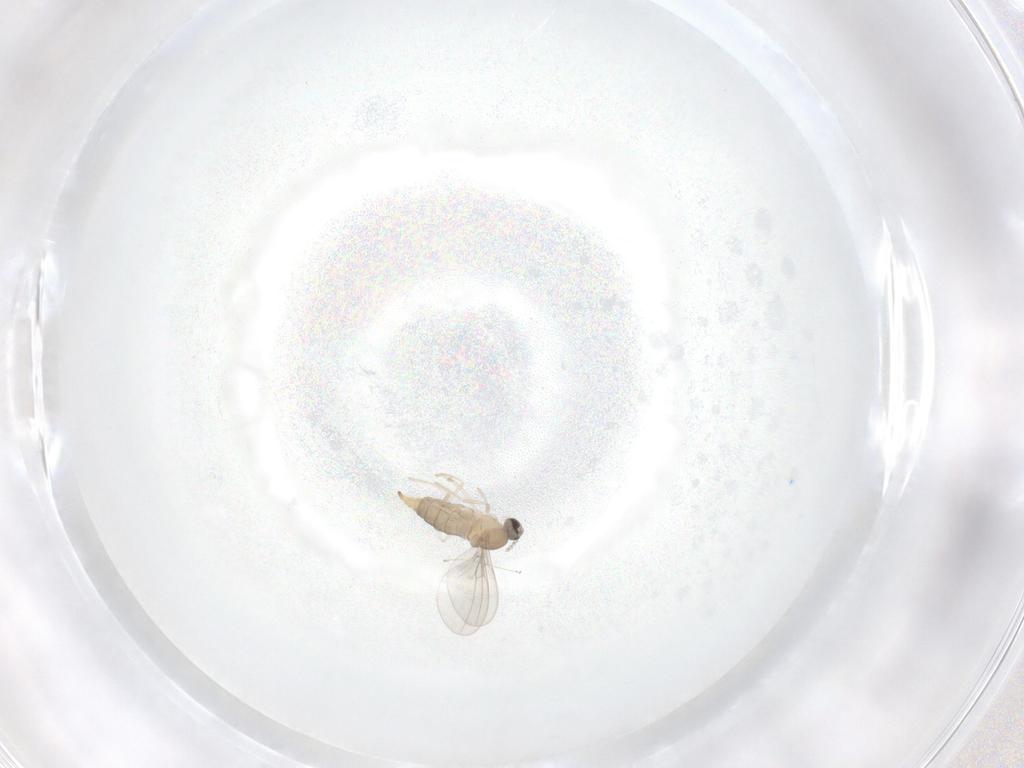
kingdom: Animalia
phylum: Arthropoda
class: Insecta
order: Diptera
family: Cecidomyiidae
